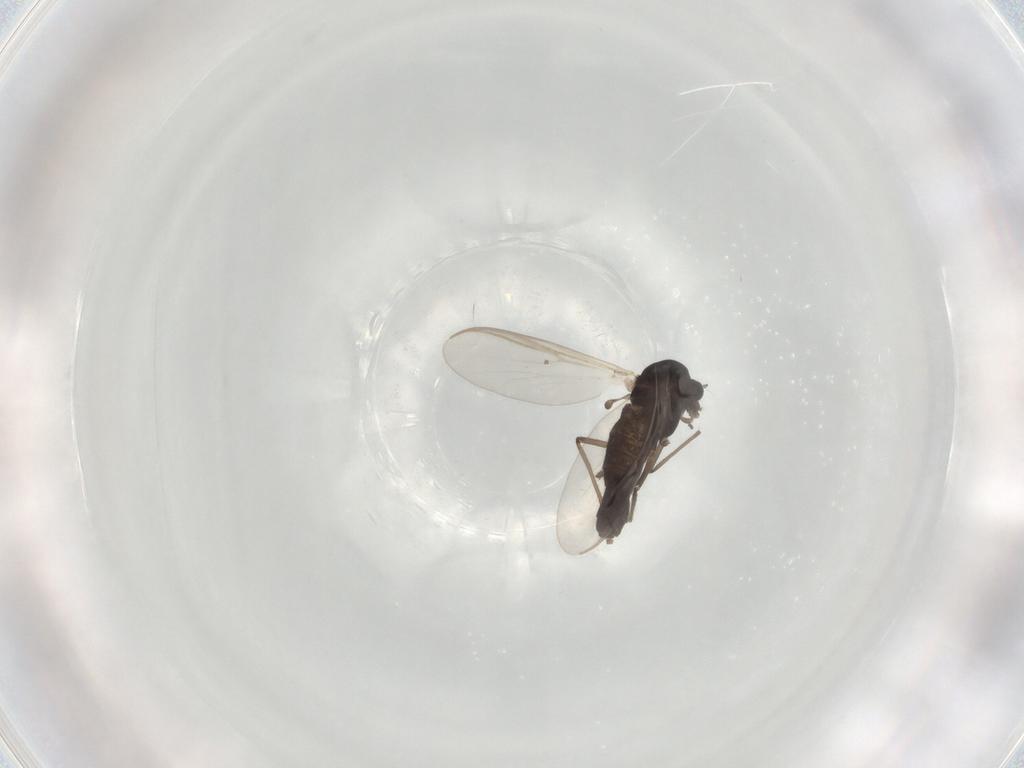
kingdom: Animalia
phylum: Arthropoda
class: Insecta
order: Diptera
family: Chironomidae
